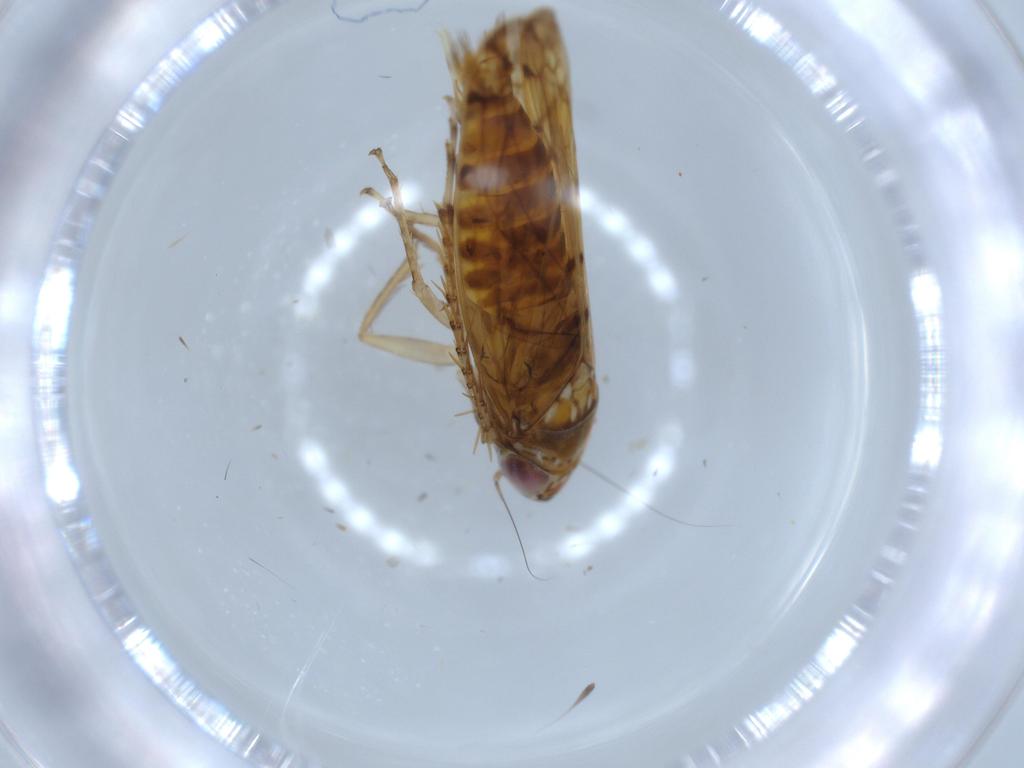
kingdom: Animalia
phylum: Arthropoda
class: Insecta
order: Hemiptera
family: Cicadellidae
